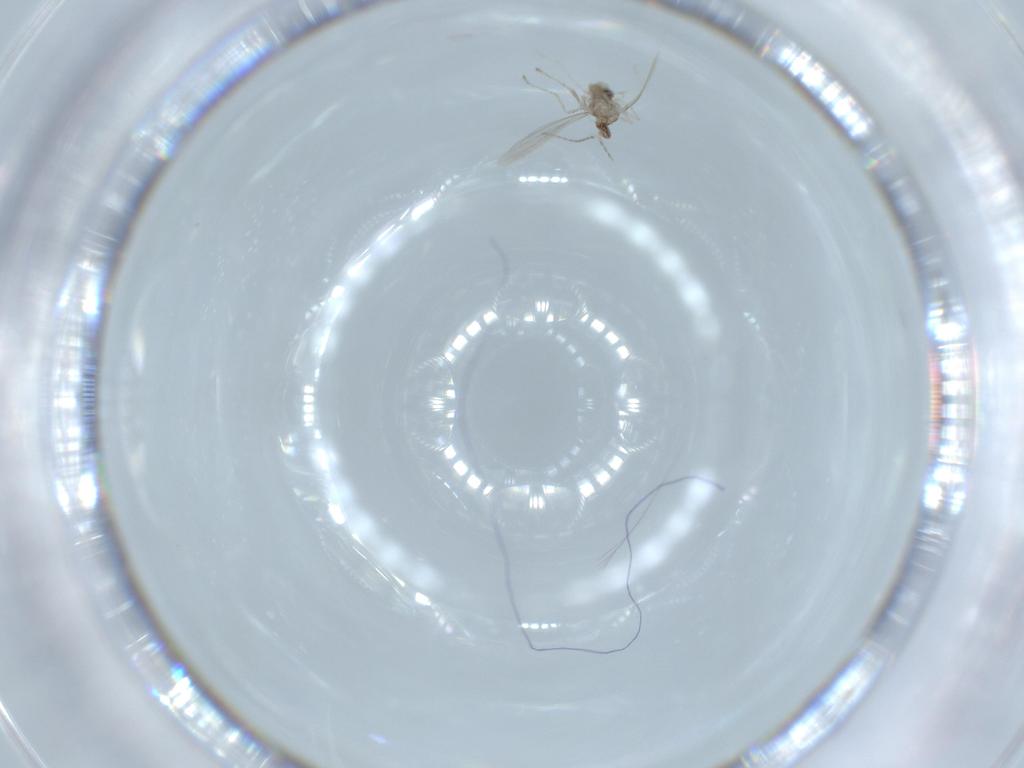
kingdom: Animalia
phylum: Arthropoda
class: Insecta
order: Diptera
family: Cecidomyiidae
